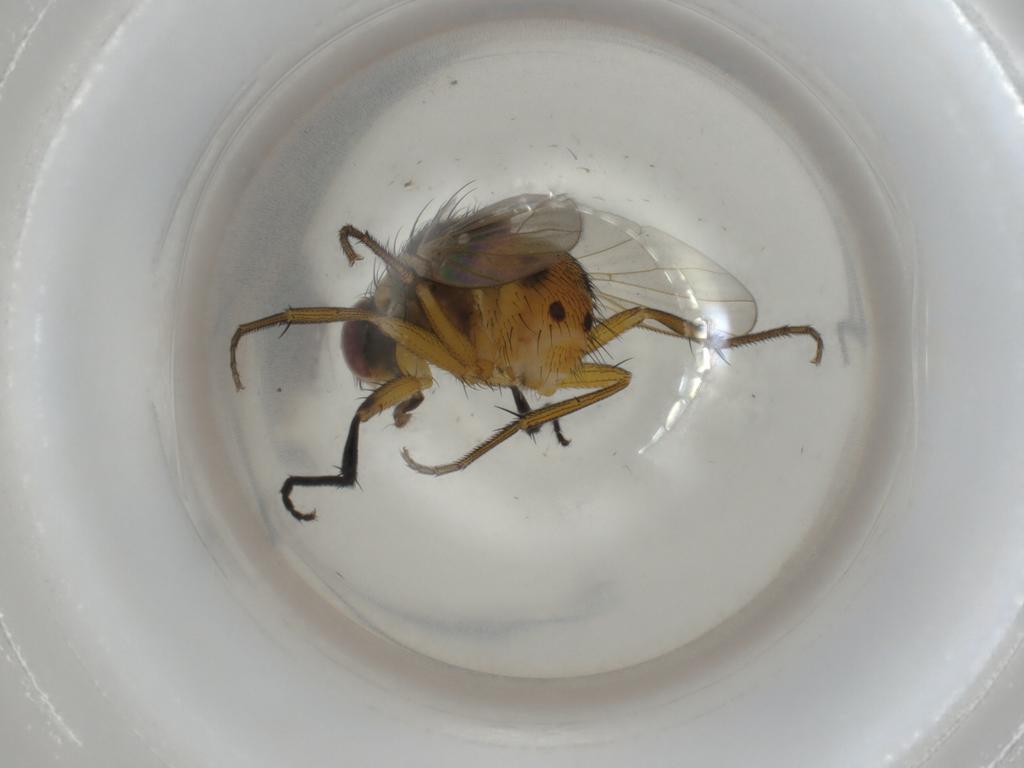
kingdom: Animalia
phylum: Arthropoda
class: Insecta
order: Diptera
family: Muscidae
